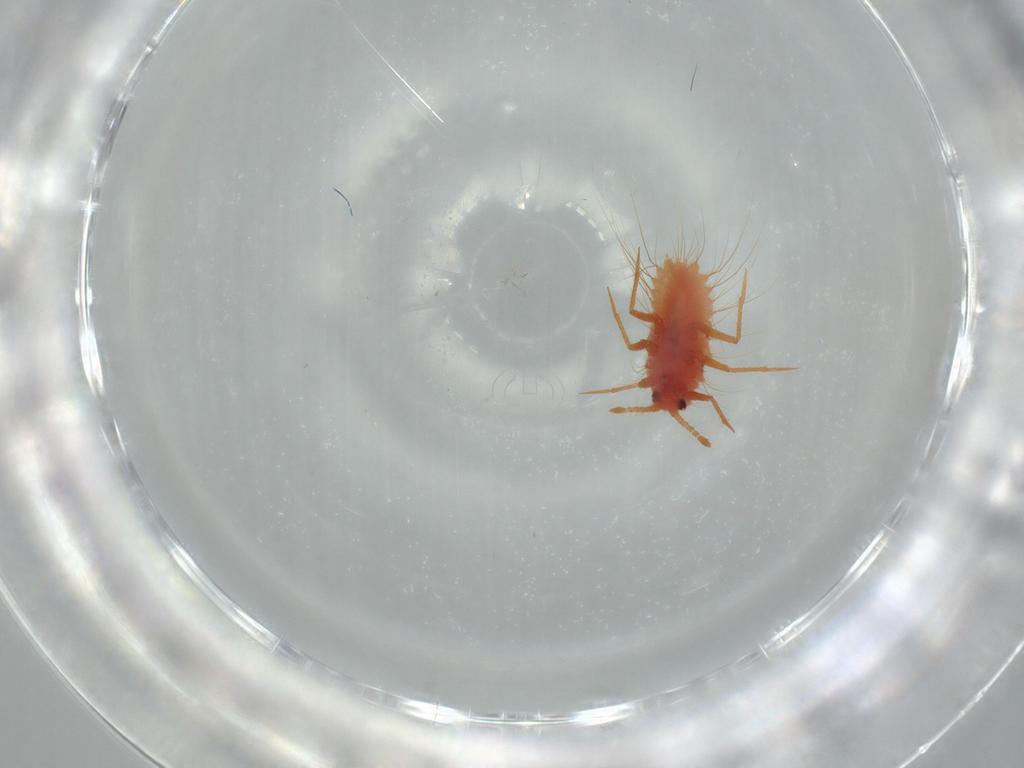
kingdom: Animalia
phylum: Arthropoda
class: Insecta
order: Hemiptera
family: Monophlebidae
